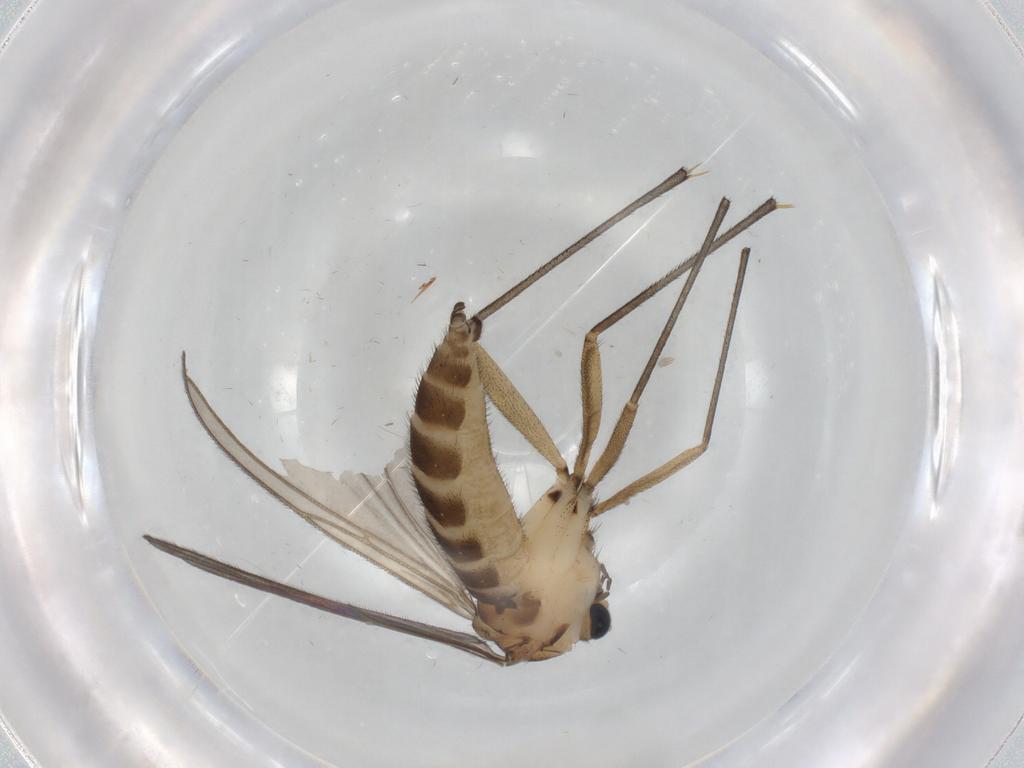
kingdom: Animalia
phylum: Arthropoda
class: Insecta
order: Diptera
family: Sciaridae
